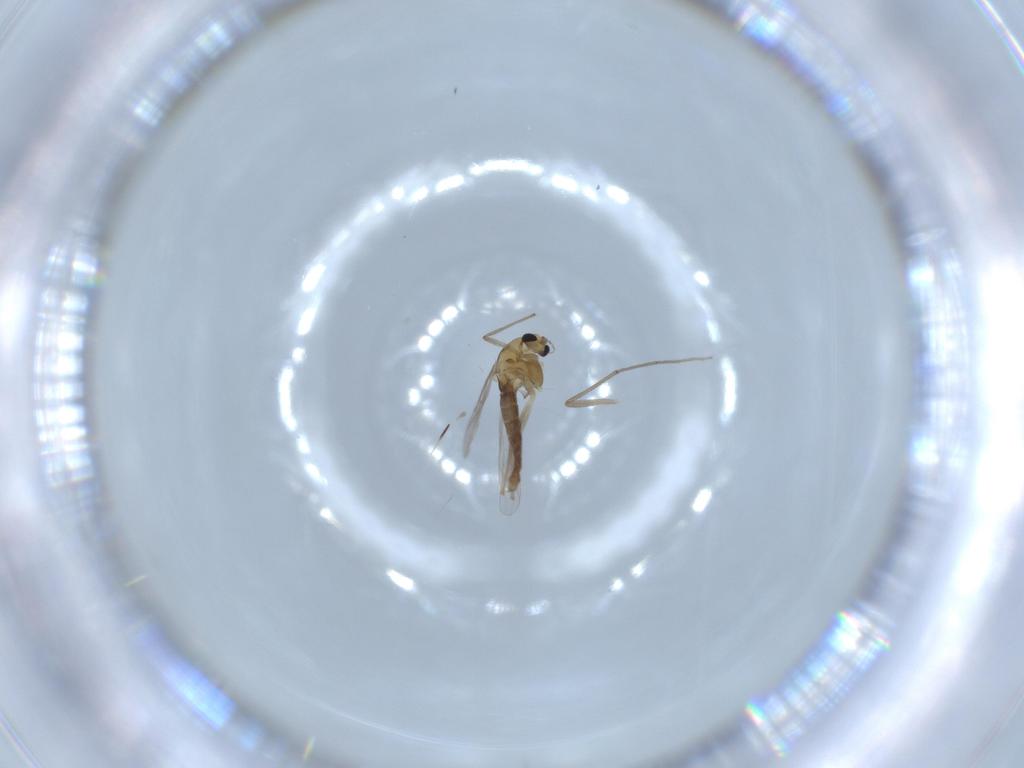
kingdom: Animalia
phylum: Arthropoda
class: Insecta
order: Diptera
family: Chironomidae
